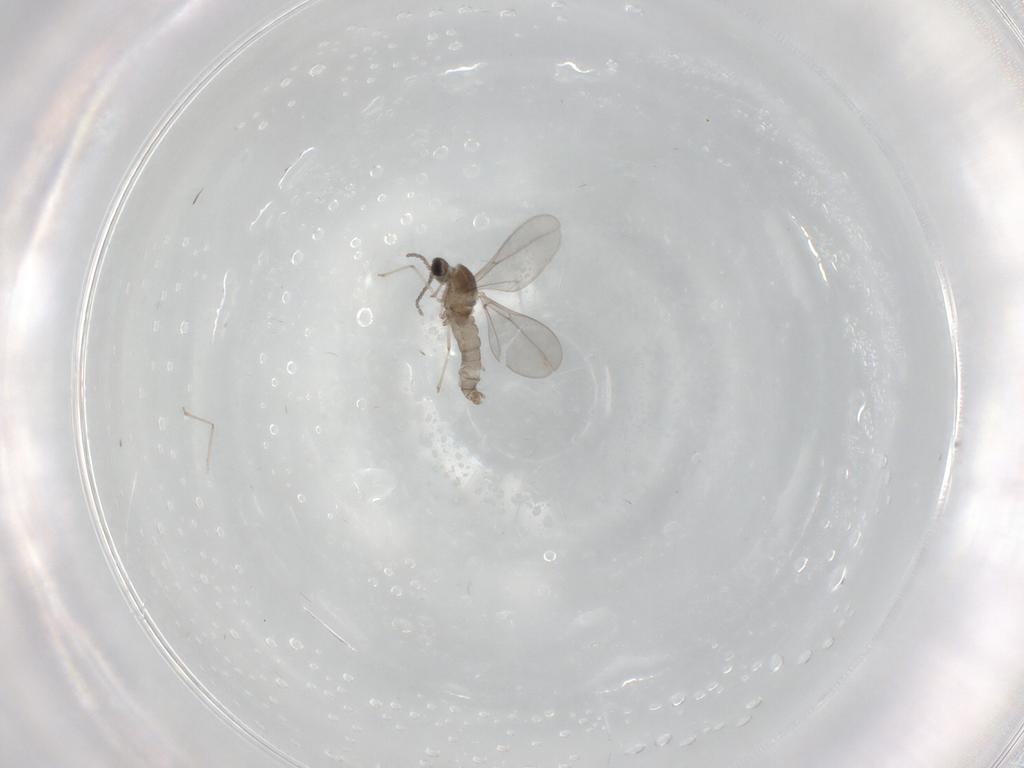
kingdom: Animalia
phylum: Arthropoda
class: Insecta
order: Diptera
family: Cecidomyiidae
